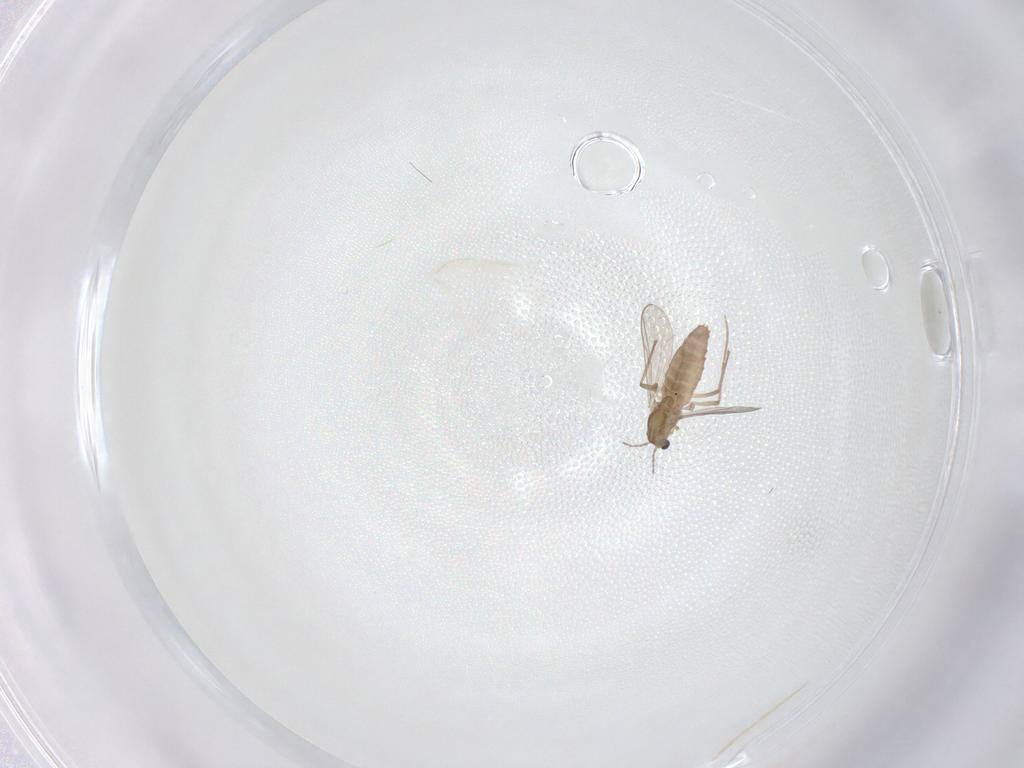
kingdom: Animalia
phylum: Arthropoda
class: Insecta
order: Diptera
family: Chironomidae
